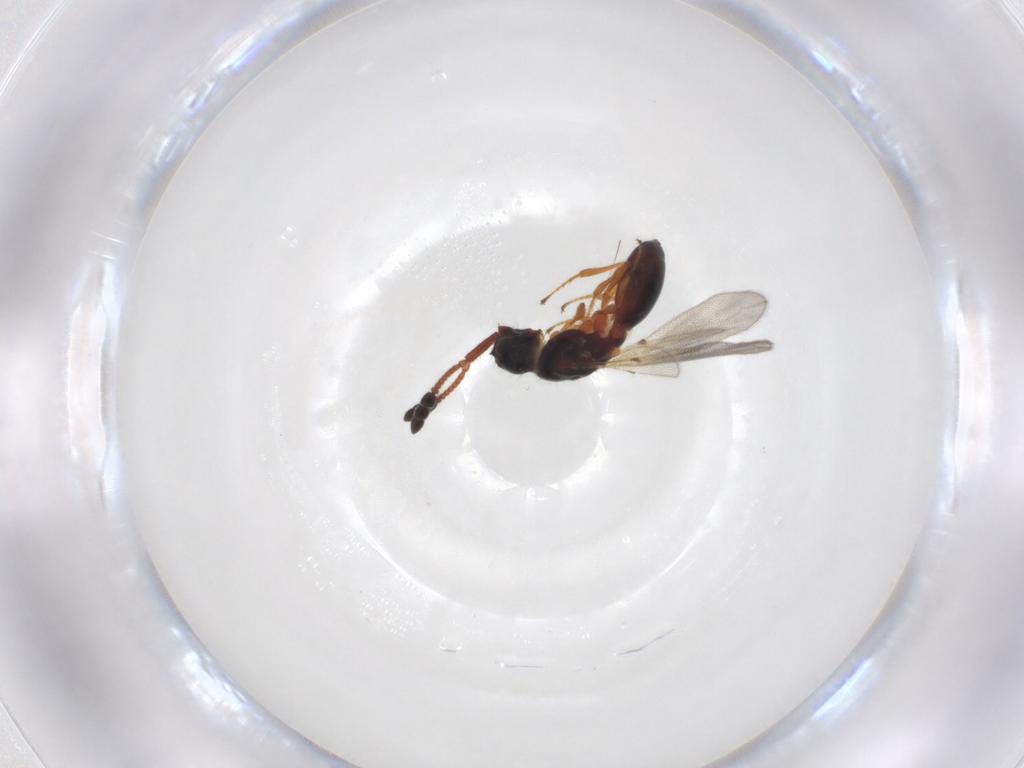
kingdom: Animalia
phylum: Arthropoda
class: Insecta
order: Hymenoptera
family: Diapriidae
